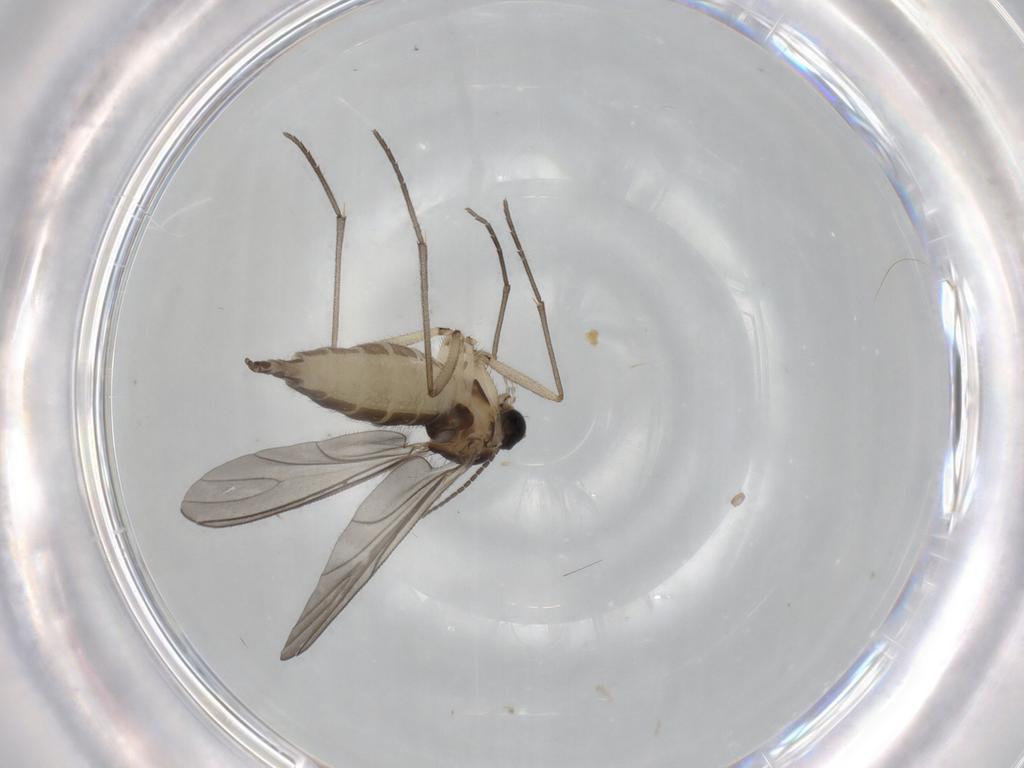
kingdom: Animalia
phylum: Arthropoda
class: Insecta
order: Diptera
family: Sciaridae
